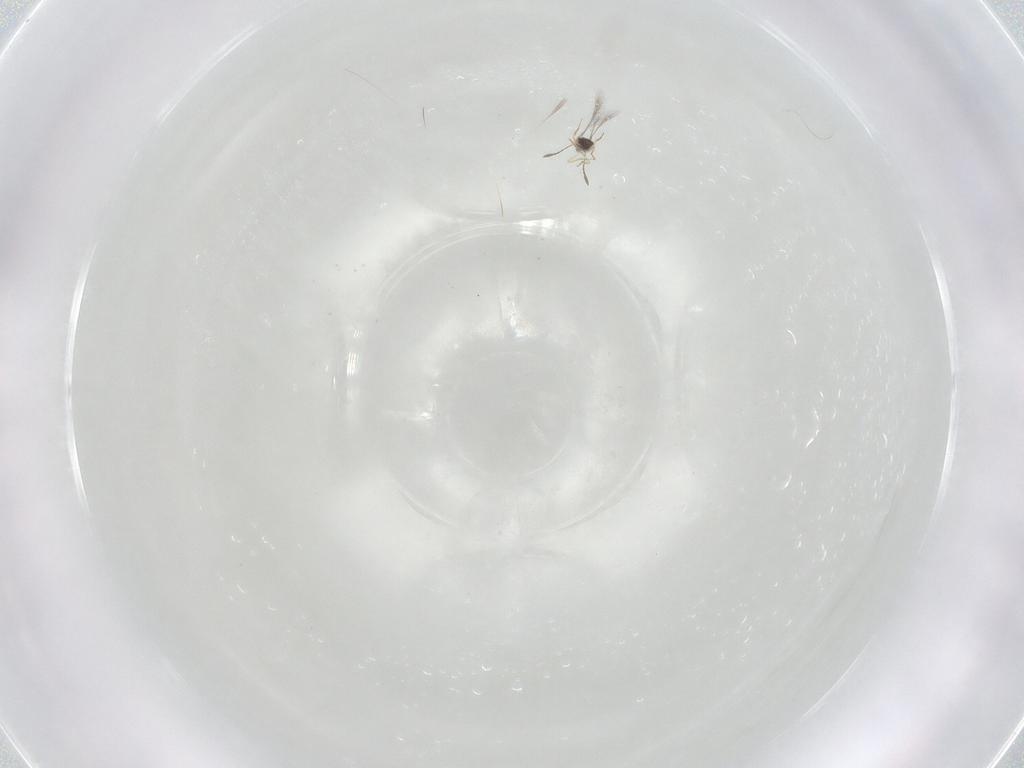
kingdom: Animalia
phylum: Arthropoda
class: Insecta
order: Hymenoptera
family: Mymaridae
